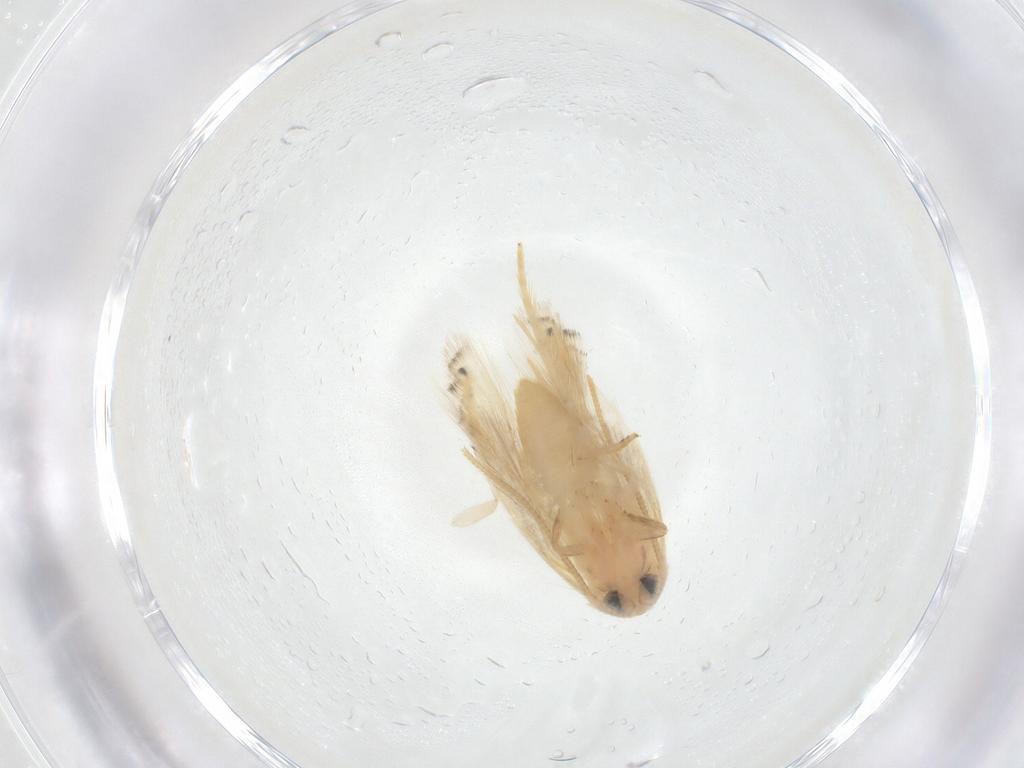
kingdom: Animalia
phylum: Arthropoda
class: Insecta
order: Lepidoptera
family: Opostegidae
